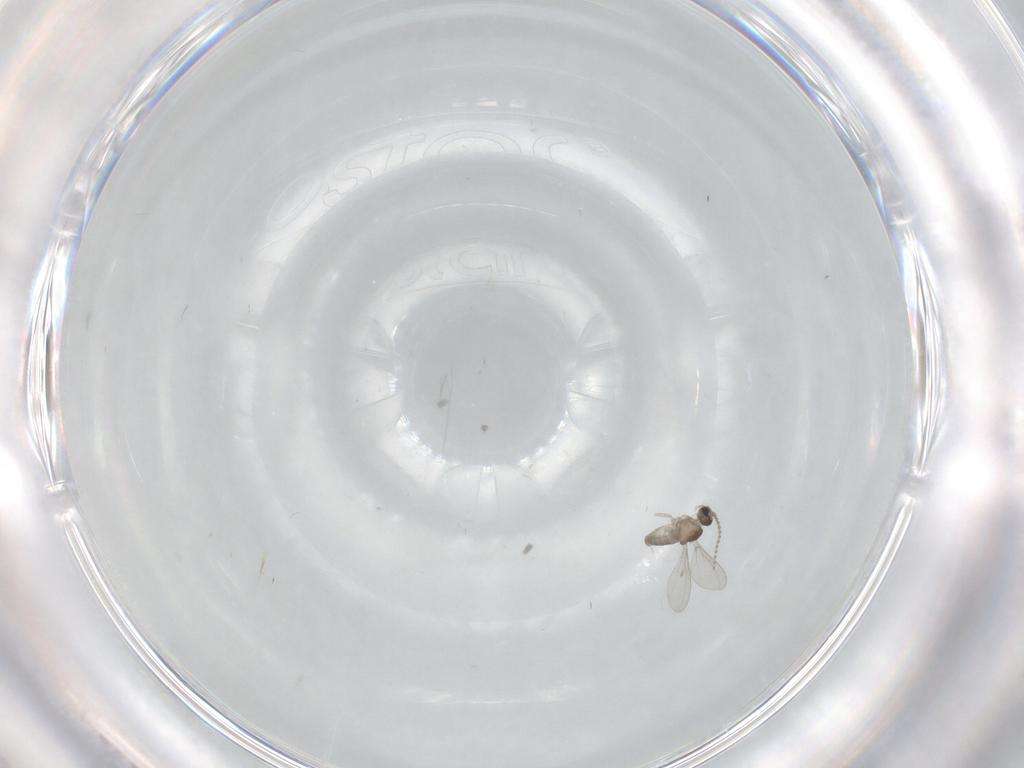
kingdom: Animalia
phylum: Arthropoda
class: Insecta
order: Diptera
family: Cecidomyiidae
